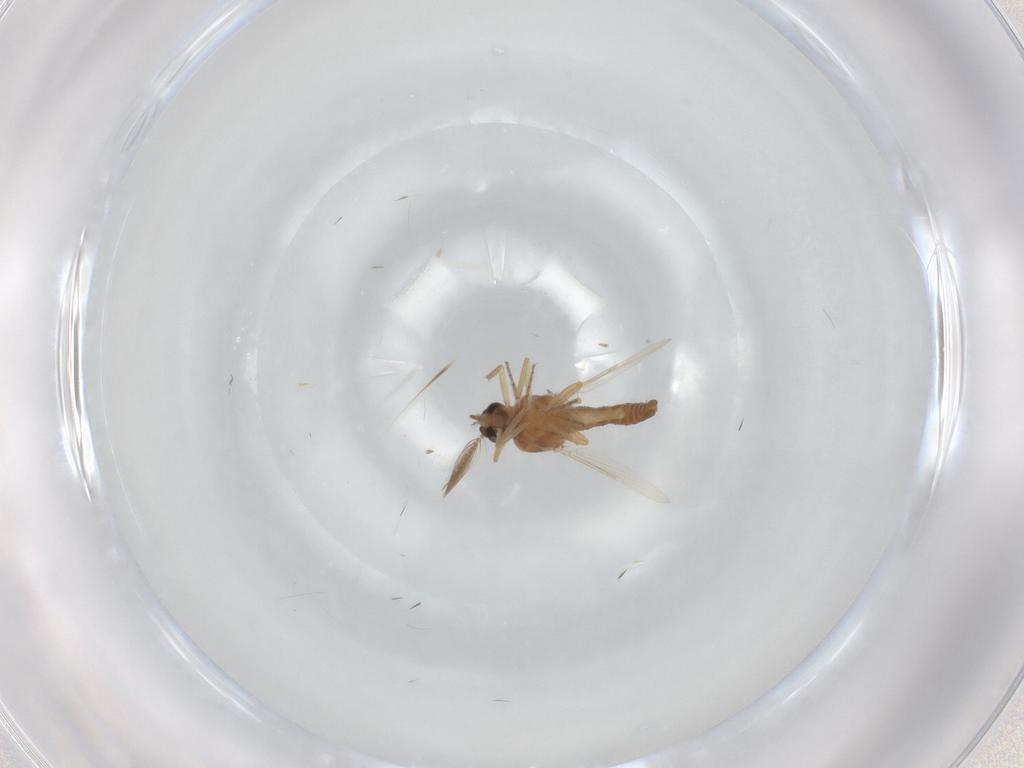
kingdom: Animalia
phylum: Arthropoda
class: Insecta
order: Diptera
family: Ceratopogonidae
